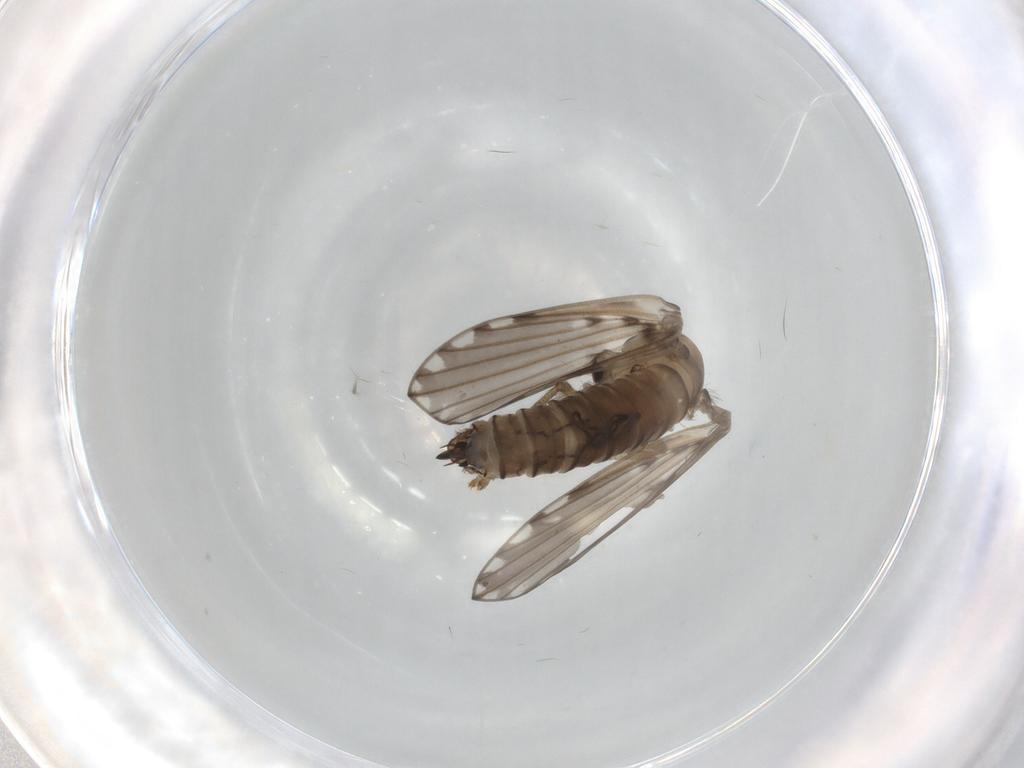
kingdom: Animalia
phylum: Arthropoda
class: Insecta
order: Diptera
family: Psychodidae
